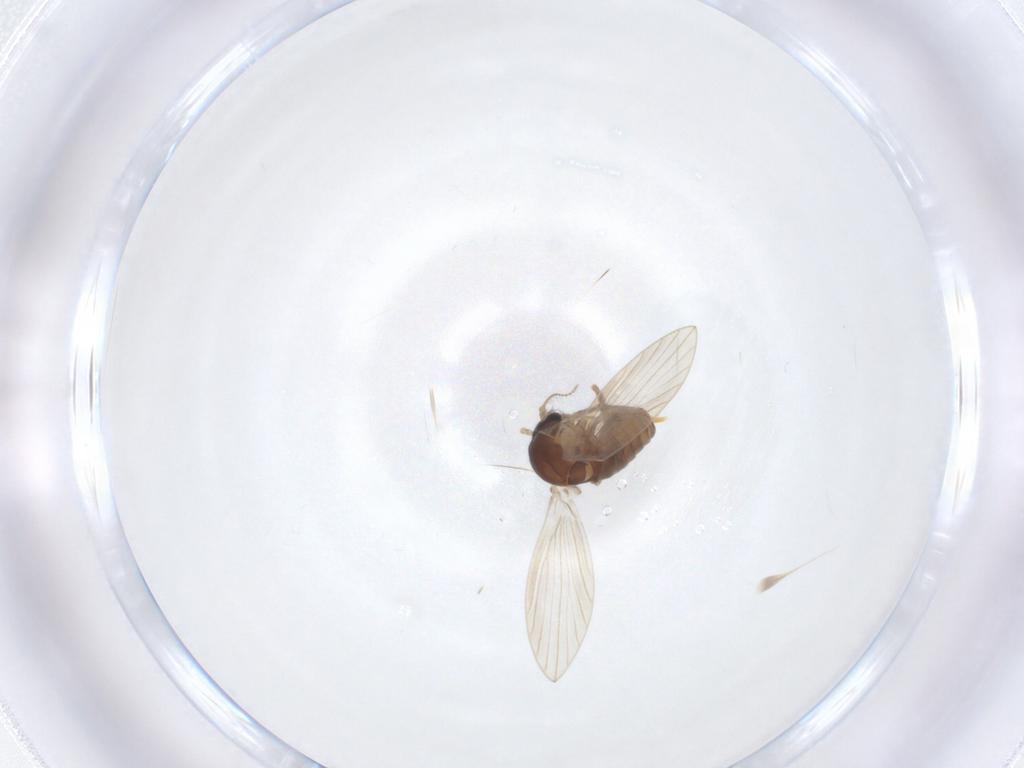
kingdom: Animalia
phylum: Arthropoda
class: Insecta
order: Diptera
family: Psychodidae
